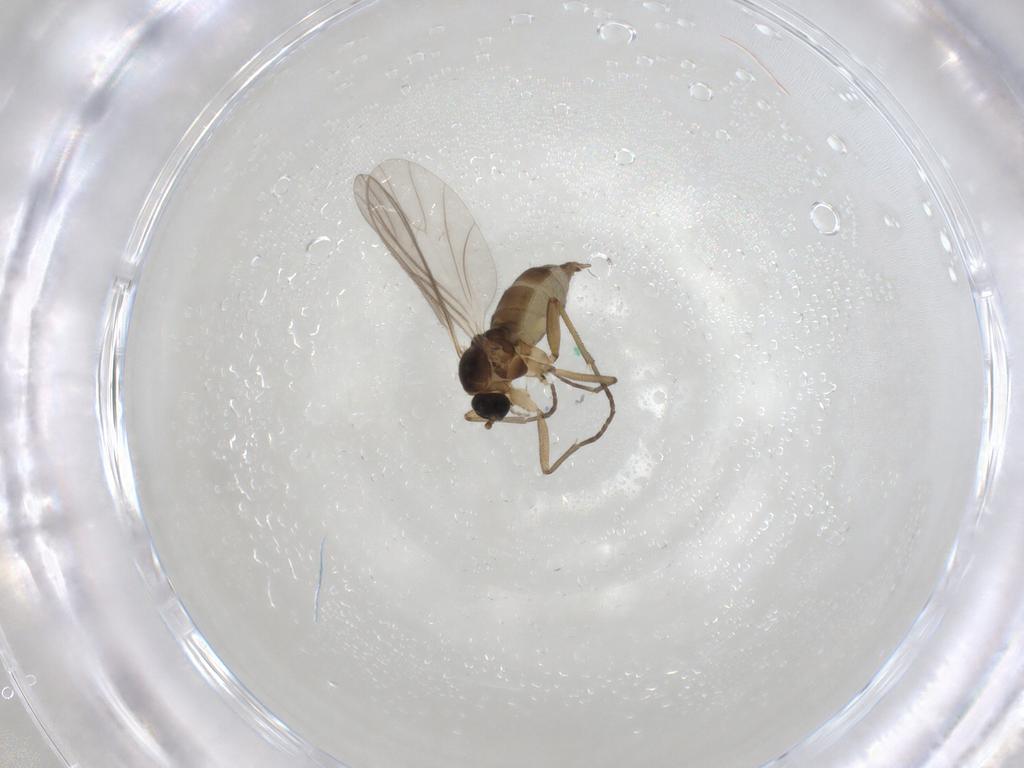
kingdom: Animalia
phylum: Arthropoda
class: Insecta
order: Diptera
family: Cecidomyiidae
